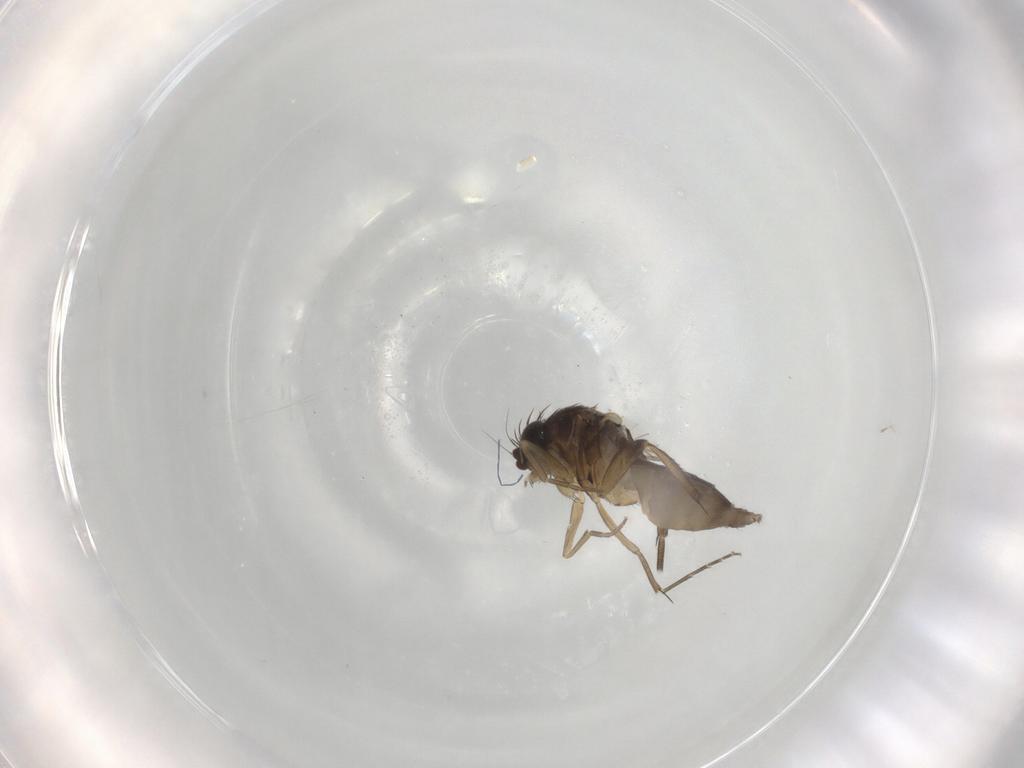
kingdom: Animalia
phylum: Arthropoda
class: Insecta
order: Diptera
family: Phoridae
